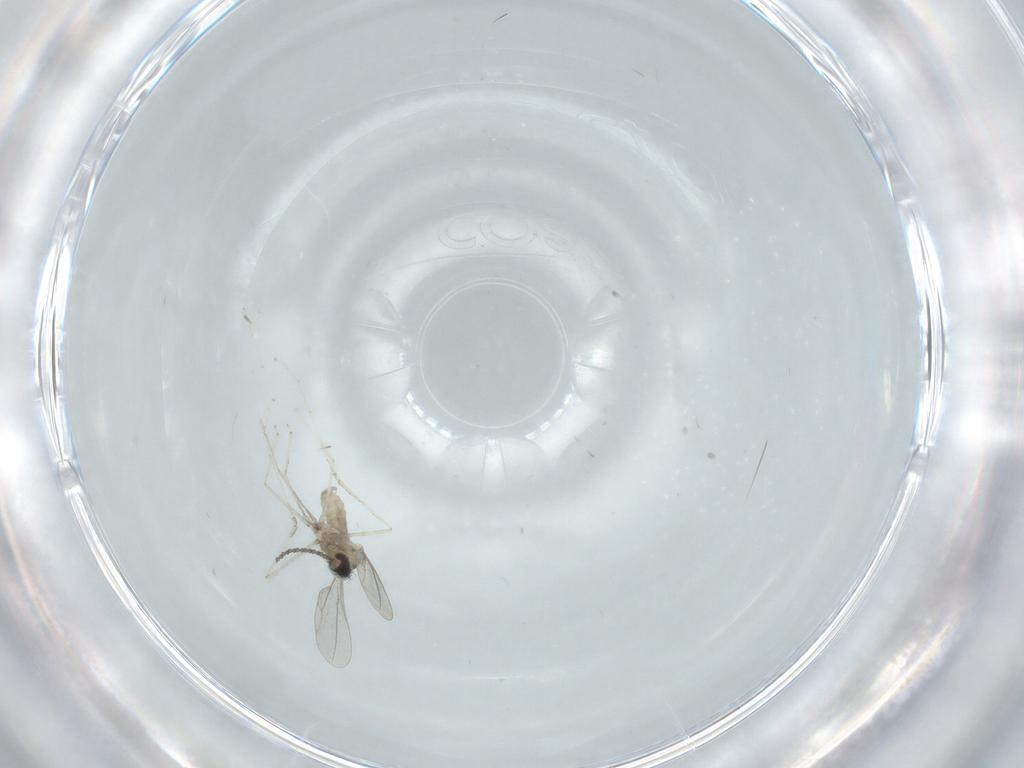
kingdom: Animalia
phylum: Arthropoda
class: Insecta
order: Diptera
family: Cecidomyiidae
